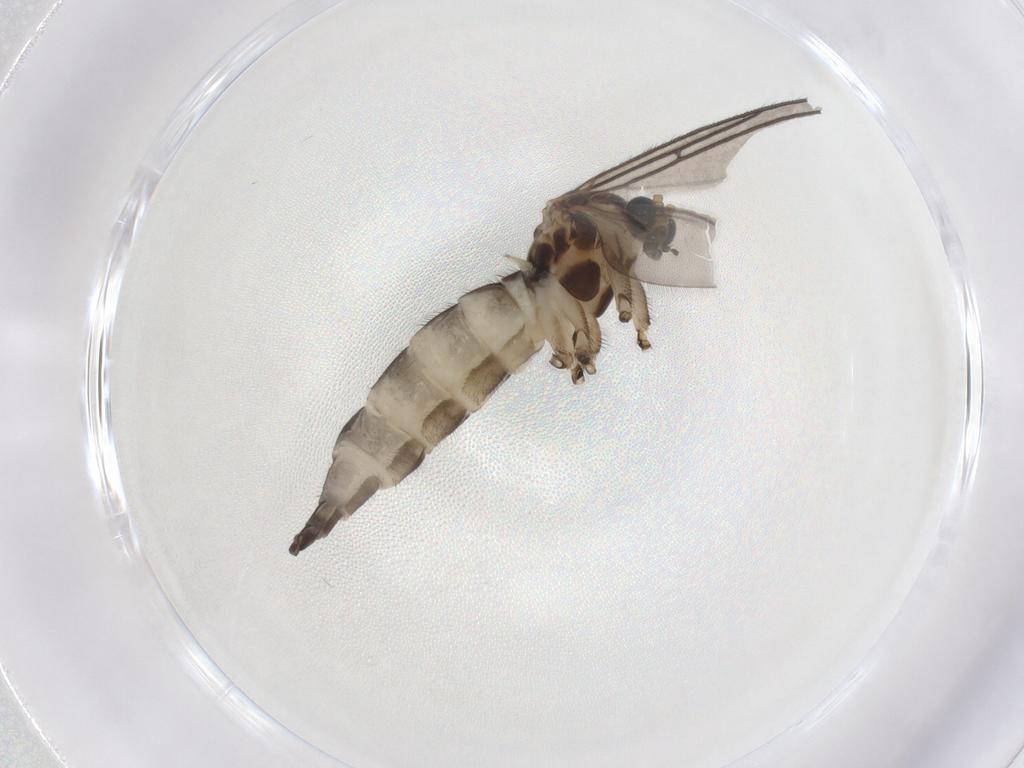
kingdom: Animalia
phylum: Arthropoda
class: Insecta
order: Diptera
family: Sciaridae
